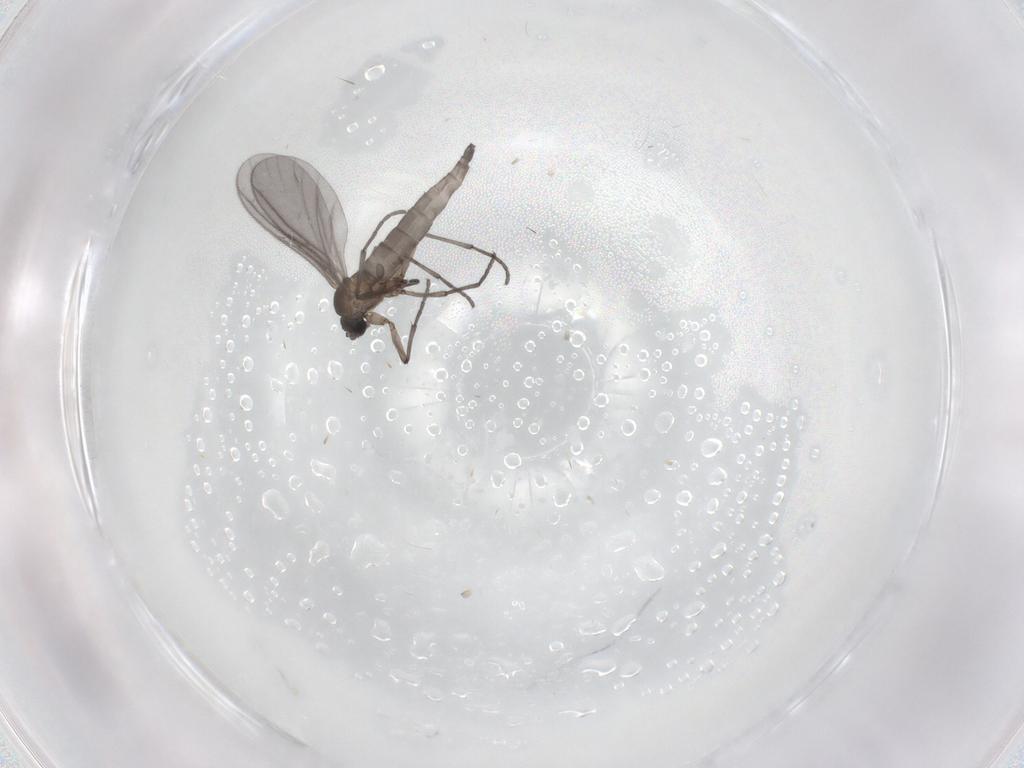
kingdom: Animalia
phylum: Arthropoda
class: Insecta
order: Diptera
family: Sciaridae
